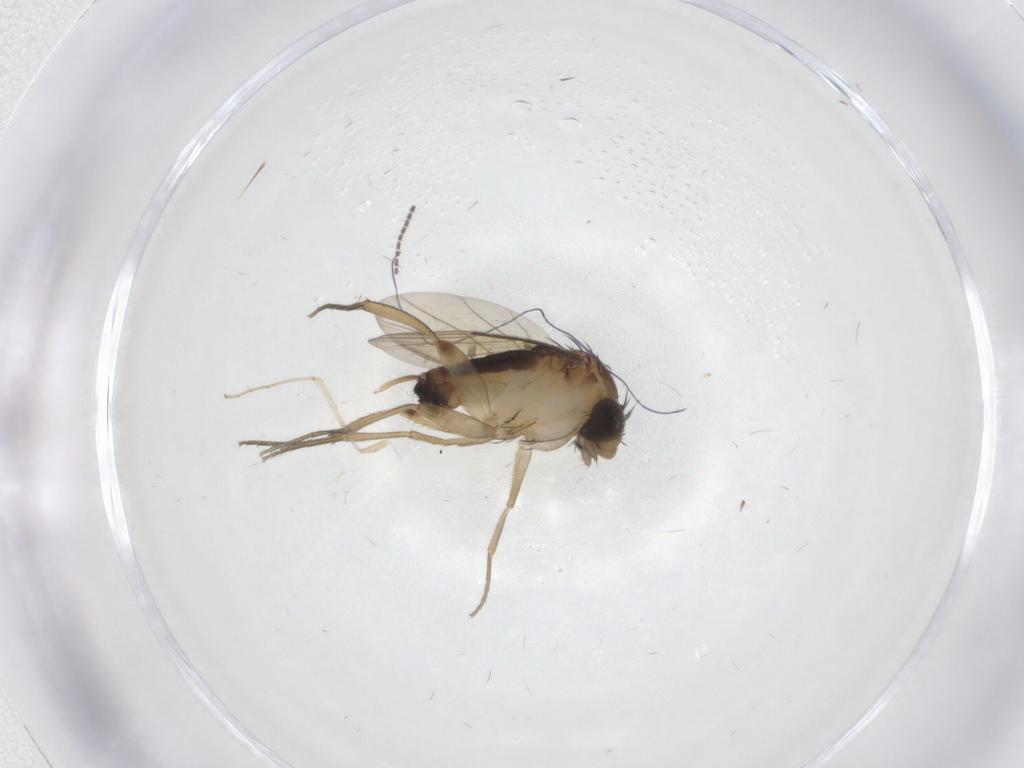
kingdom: Animalia
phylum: Arthropoda
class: Insecta
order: Diptera
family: Phoridae
